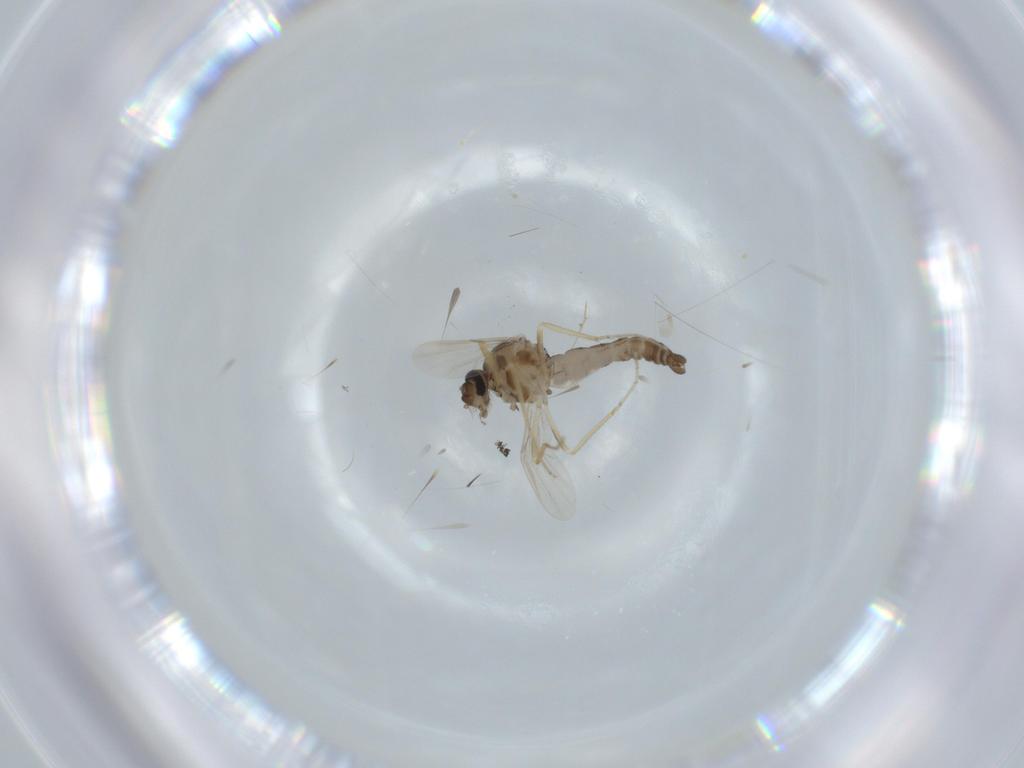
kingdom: Animalia
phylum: Arthropoda
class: Insecta
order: Diptera
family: Ceratopogonidae
